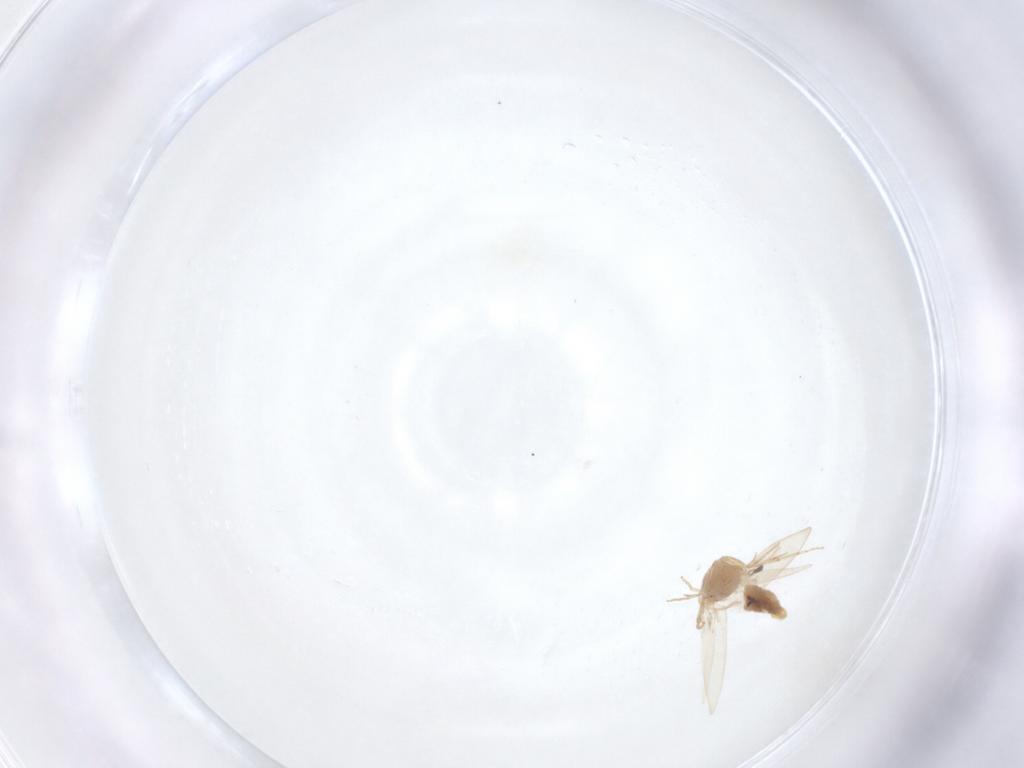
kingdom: Animalia
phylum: Arthropoda
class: Insecta
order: Lepidoptera
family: Nepticulidae
